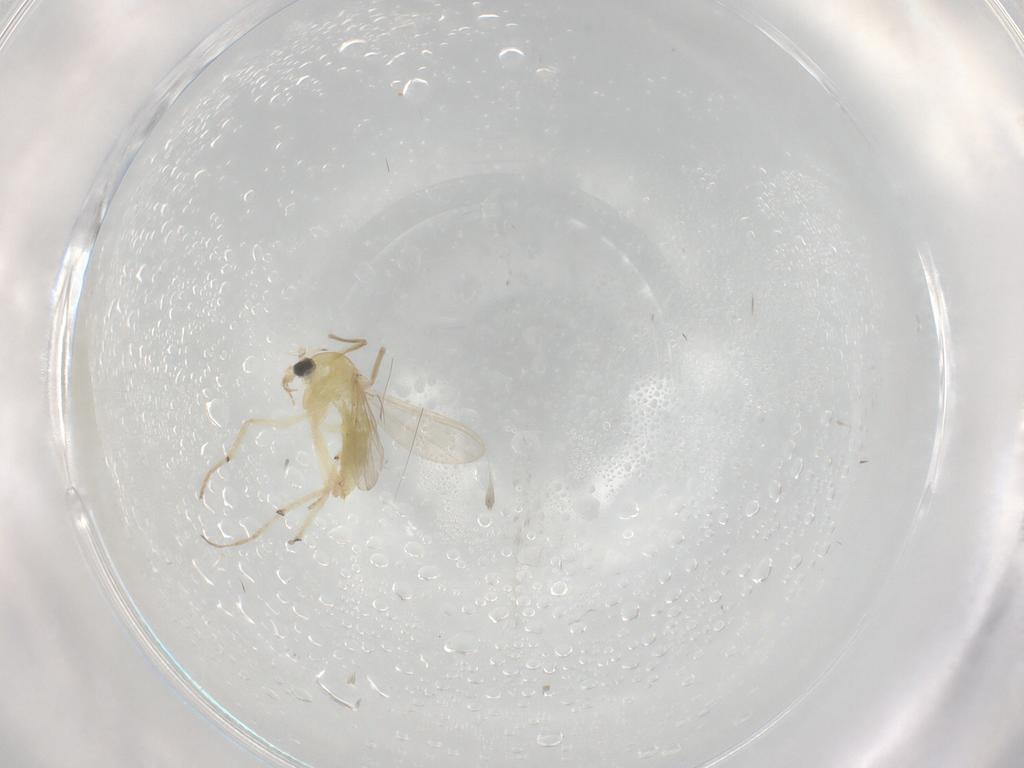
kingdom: Animalia
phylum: Arthropoda
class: Insecta
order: Diptera
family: Chironomidae
